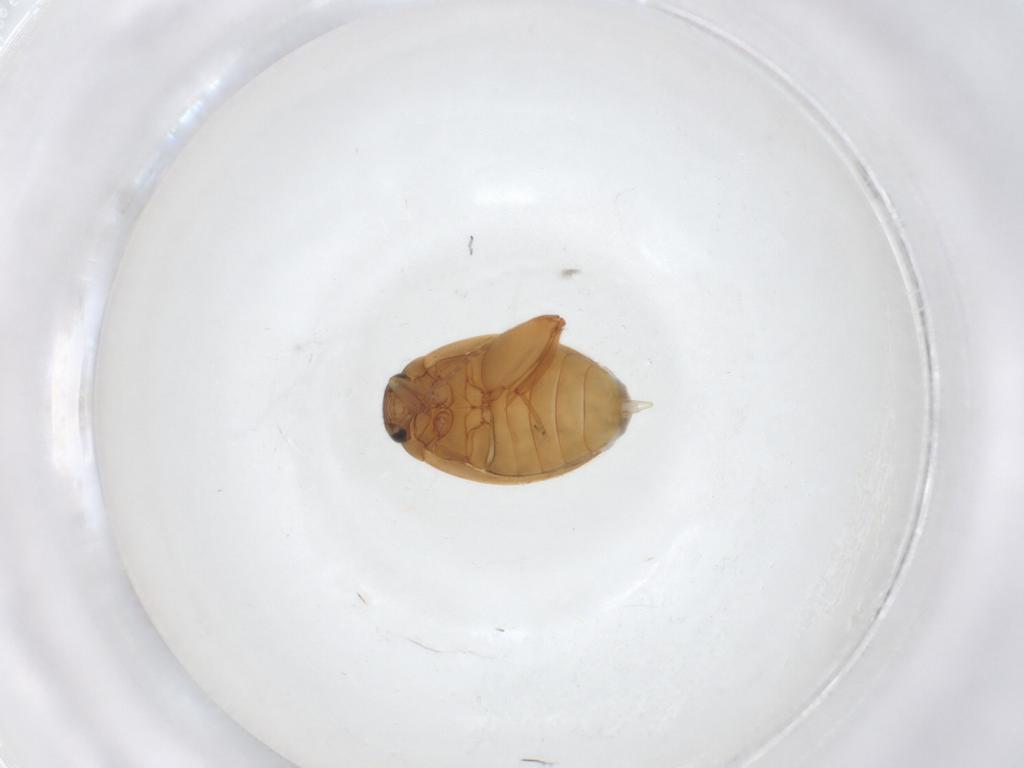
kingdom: Animalia
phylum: Arthropoda
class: Insecta
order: Coleoptera
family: Scirtidae
